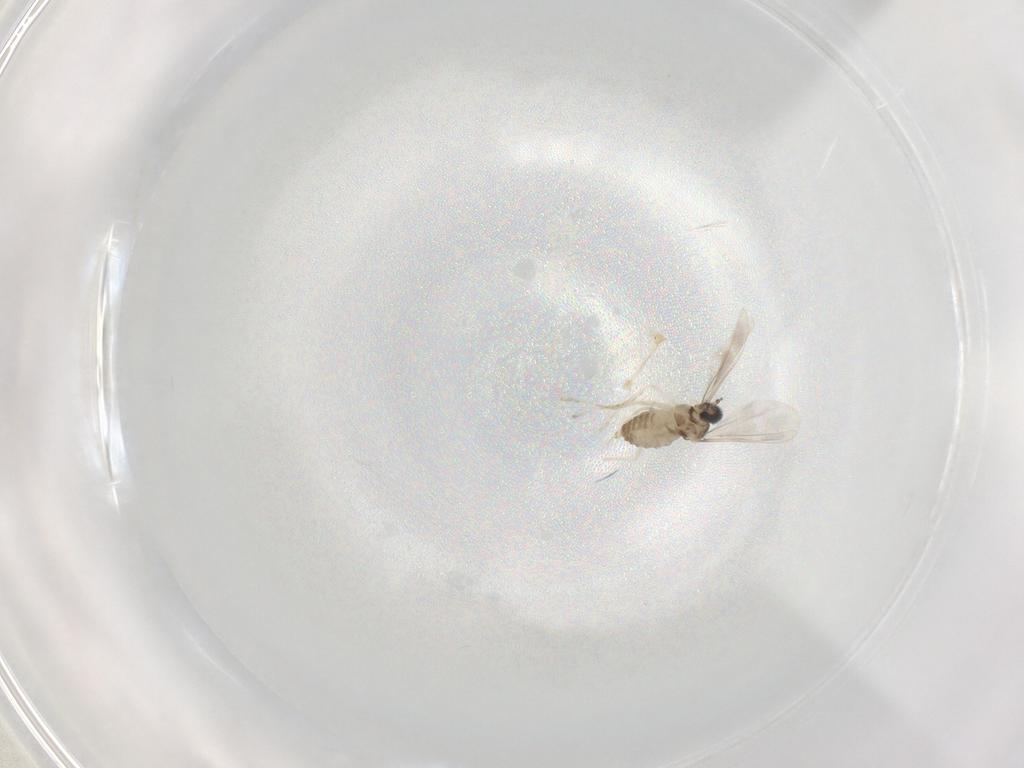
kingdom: Animalia
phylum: Arthropoda
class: Insecta
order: Diptera
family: Cecidomyiidae
